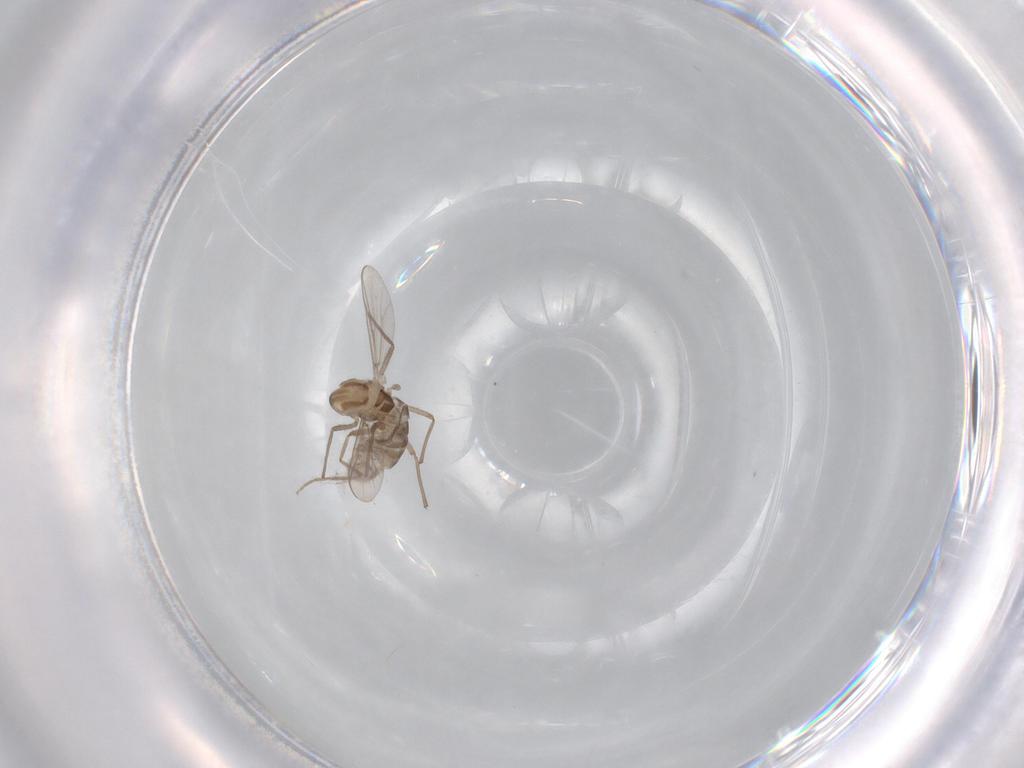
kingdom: Animalia
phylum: Arthropoda
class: Insecta
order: Diptera
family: Chironomidae
